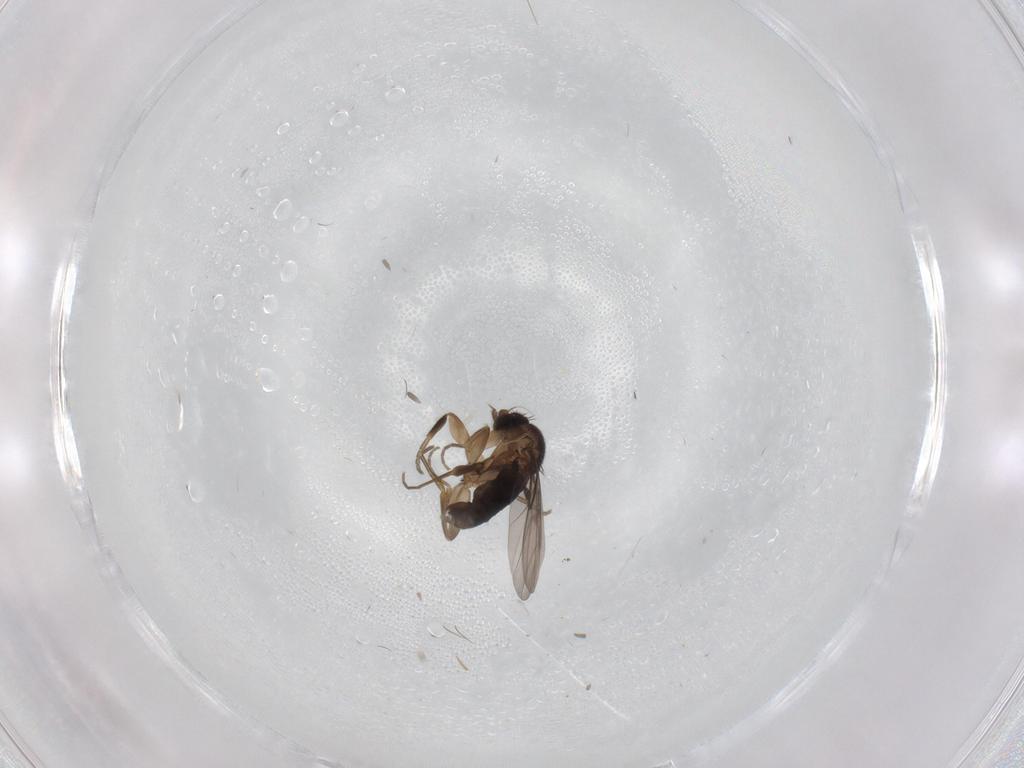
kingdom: Animalia
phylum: Arthropoda
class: Insecta
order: Diptera
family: Phoridae
